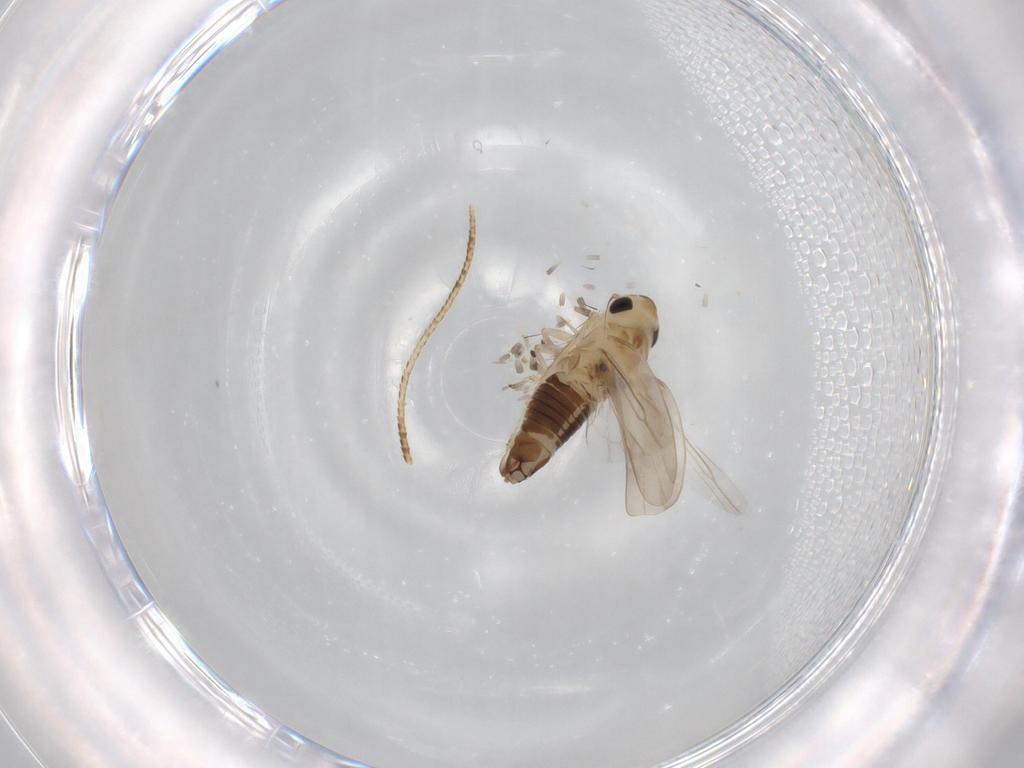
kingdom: Animalia
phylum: Arthropoda
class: Insecta
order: Hemiptera
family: Cicadellidae
